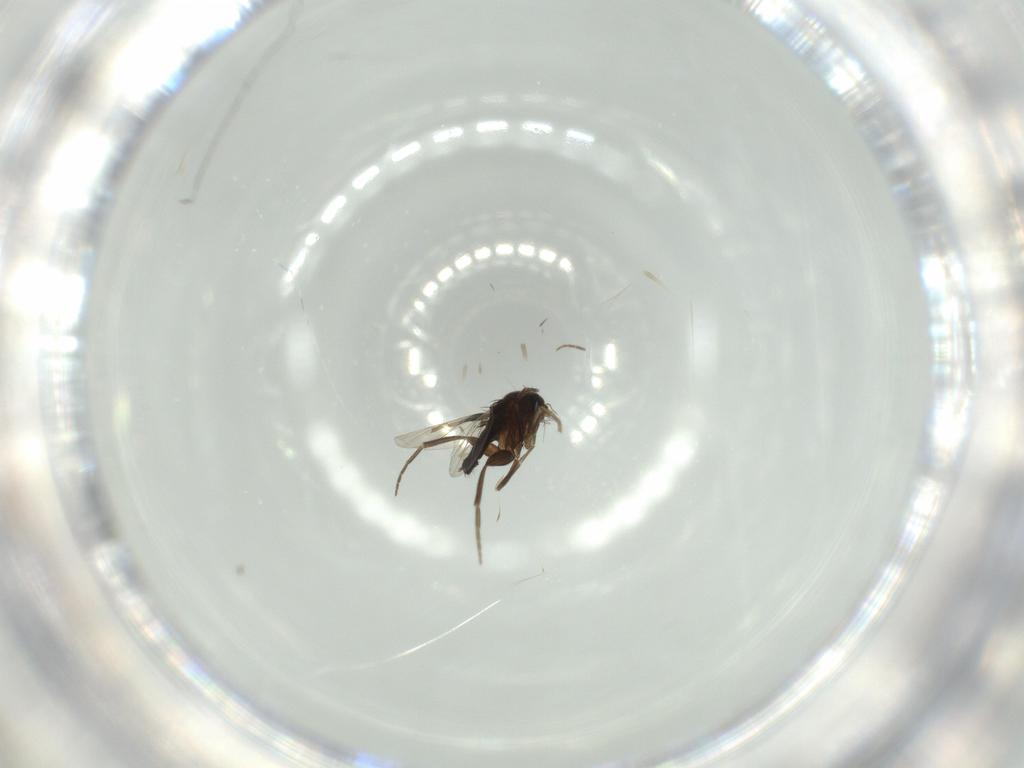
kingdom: Animalia
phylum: Arthropoda
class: Insecta
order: Diptera
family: Chironomidae
